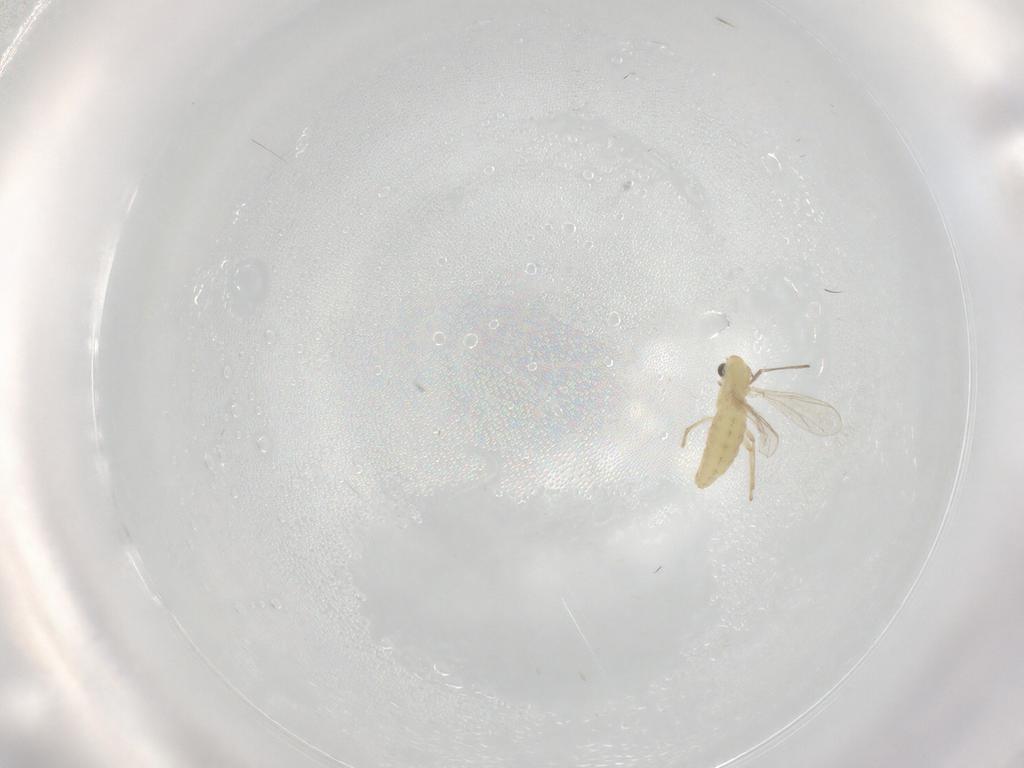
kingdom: Animalia
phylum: Arthropoda
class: Insecta
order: Diptera
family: Chironomidae
